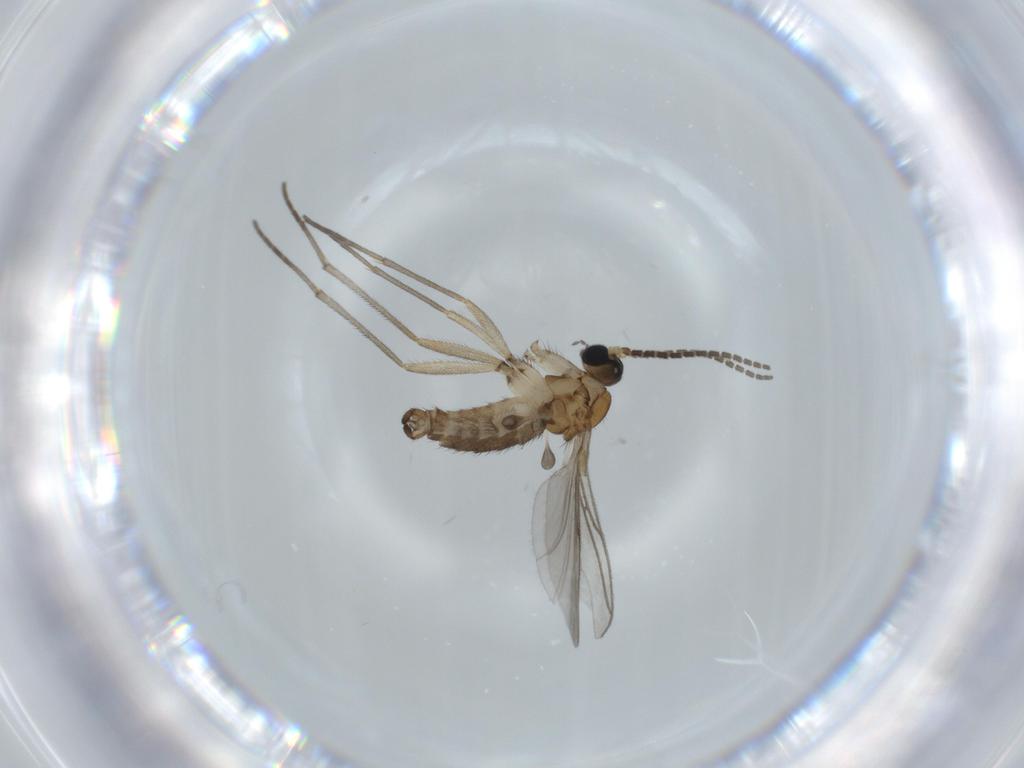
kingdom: Animalia
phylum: Arthropoda
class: Insecta
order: Diptera
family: Sciaridae
